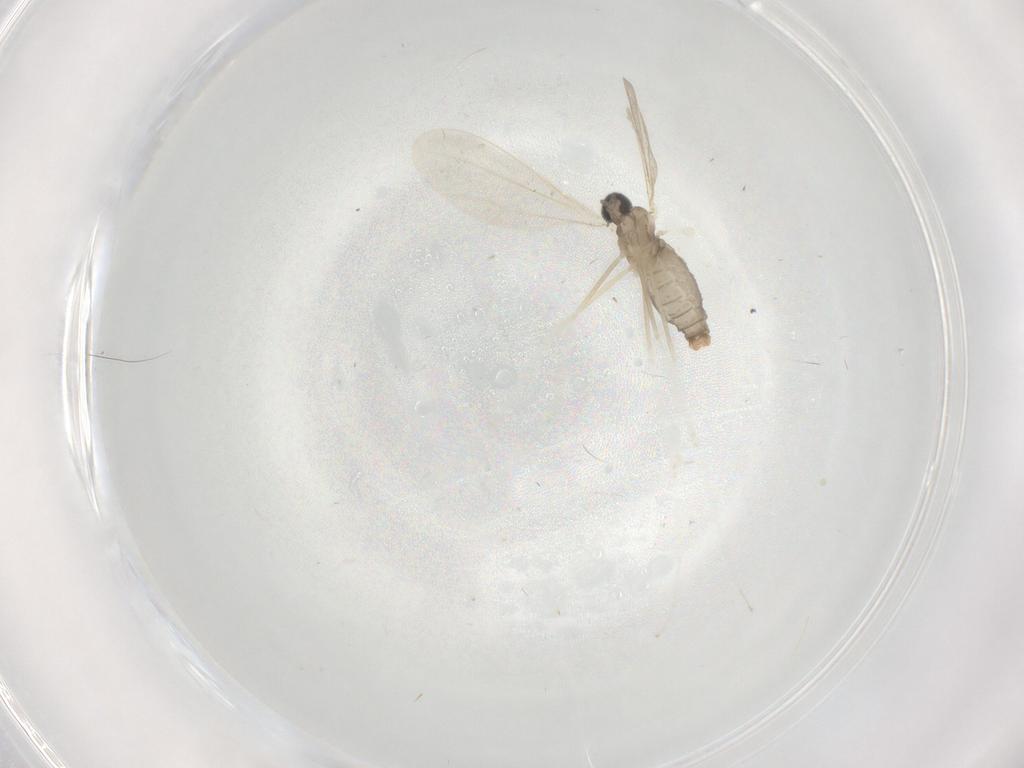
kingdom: Animalia
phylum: Arthropoda
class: Insecta
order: Diptera
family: Cecidomyiidae
